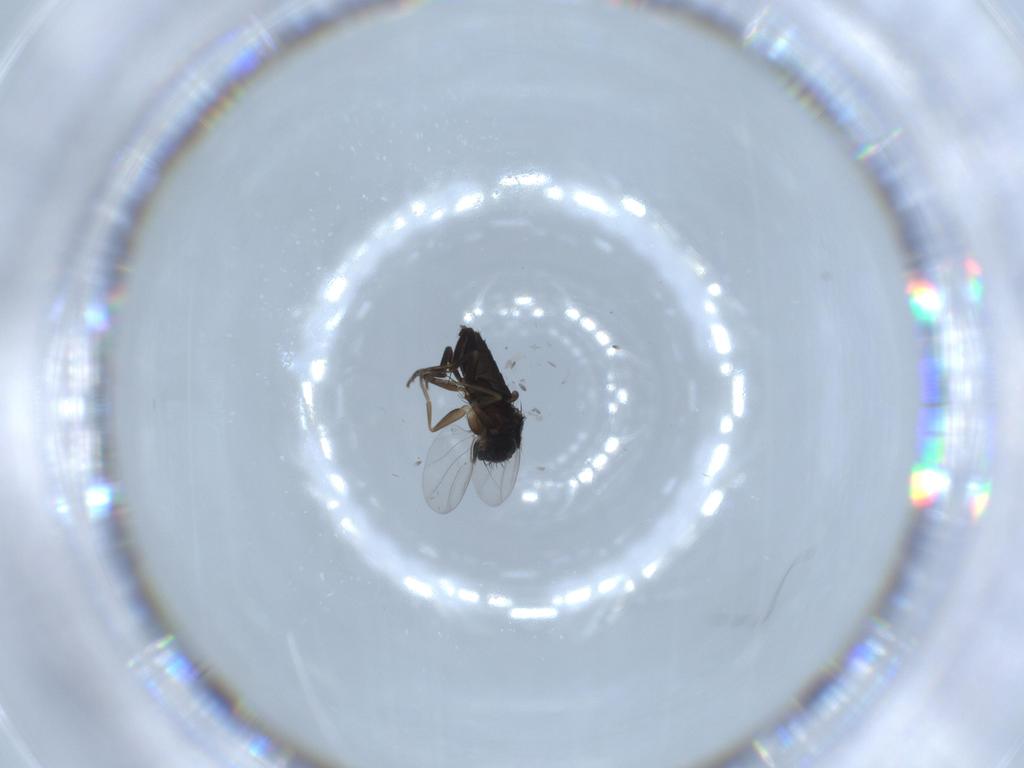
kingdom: Animalia
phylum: Arthropoda
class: Insecta
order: Diptera
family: Phoridae
